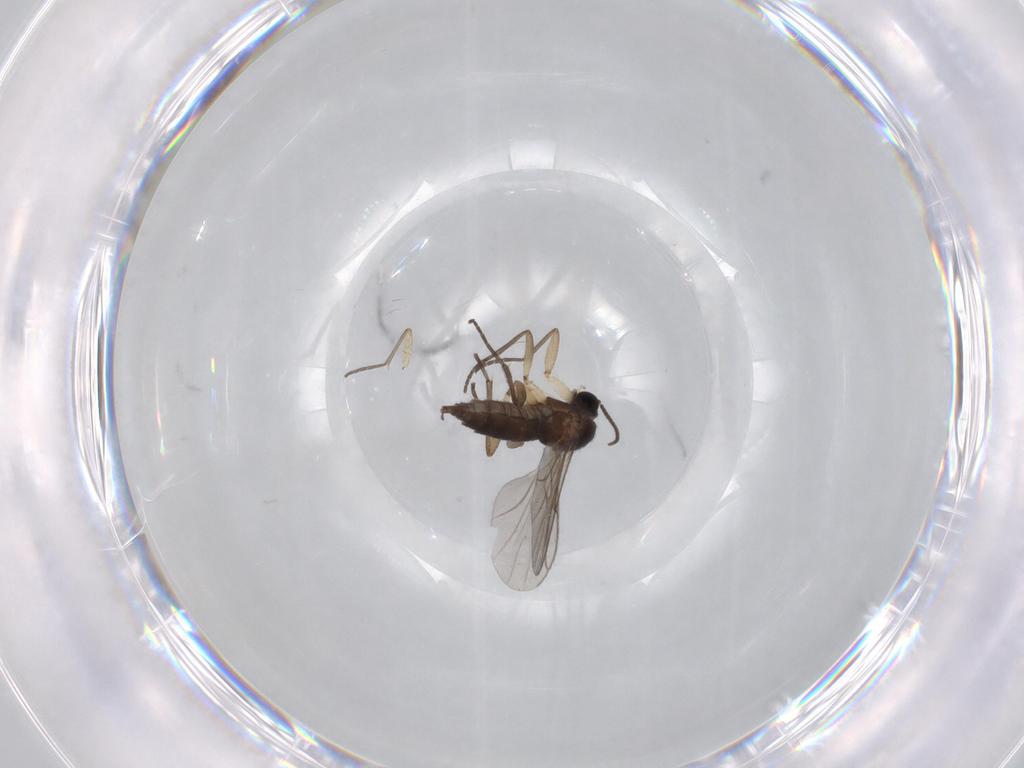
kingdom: Animalia
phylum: Arthropoda
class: Insecta
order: Diptera
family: Sciaridae
